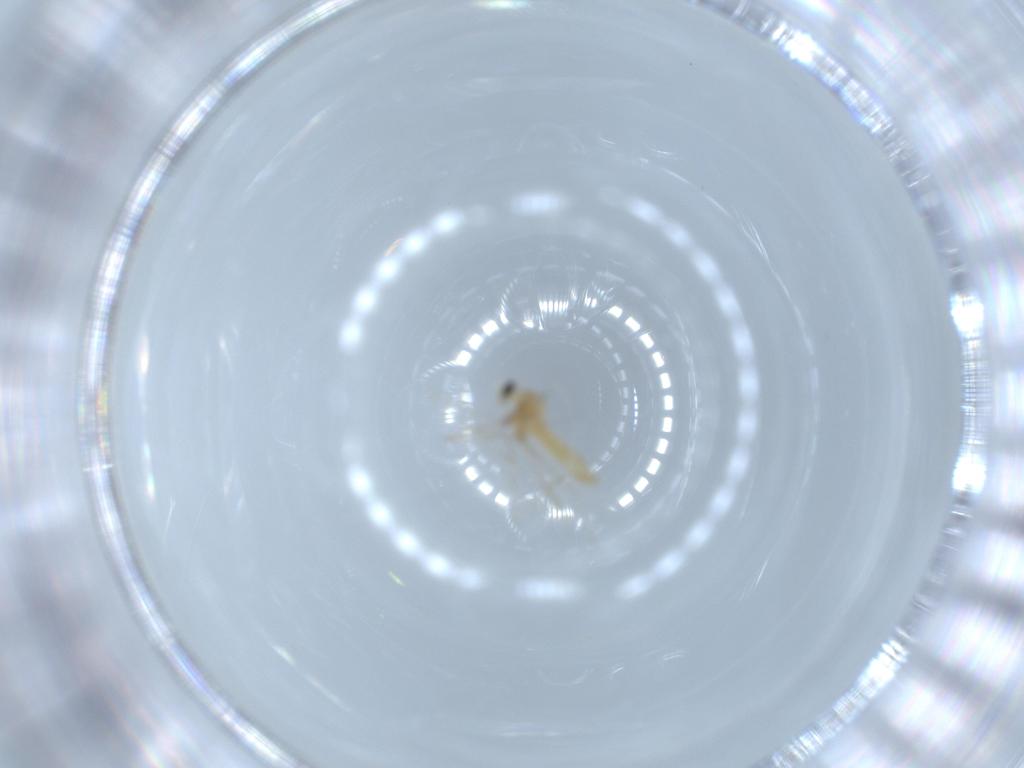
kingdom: Animalia
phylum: Arthropoda
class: Insecta
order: Diptera
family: Cecidomyiidae
